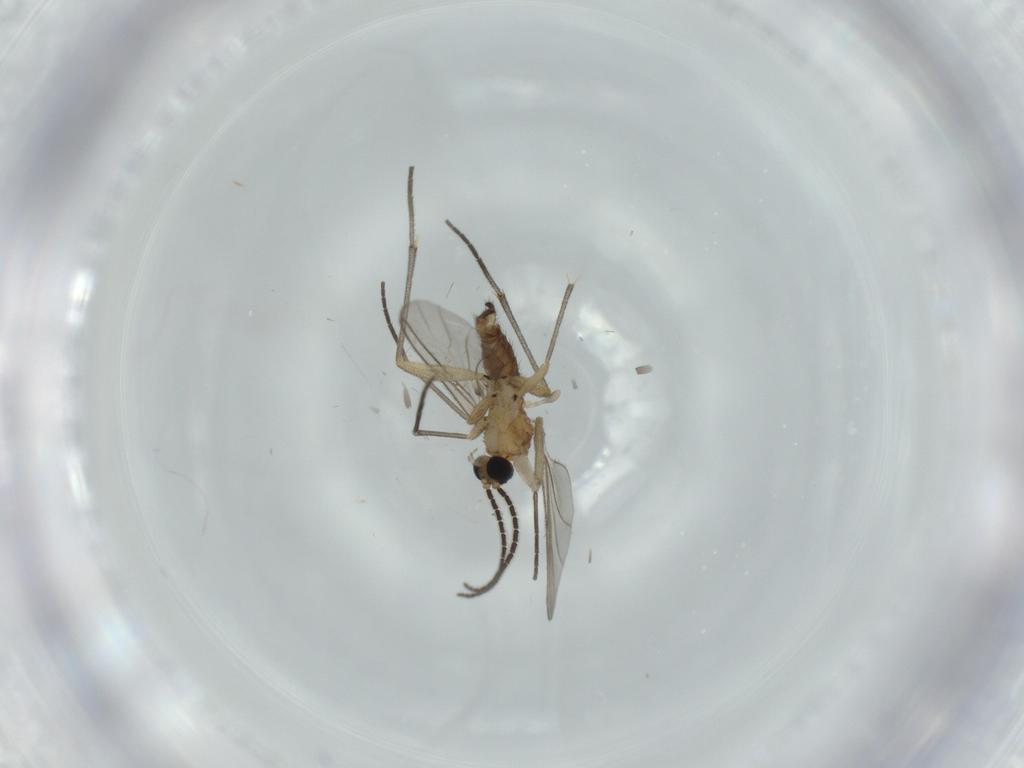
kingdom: Animalia
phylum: Arthropoda
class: Insecta
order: Diptera
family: Sciaridae
